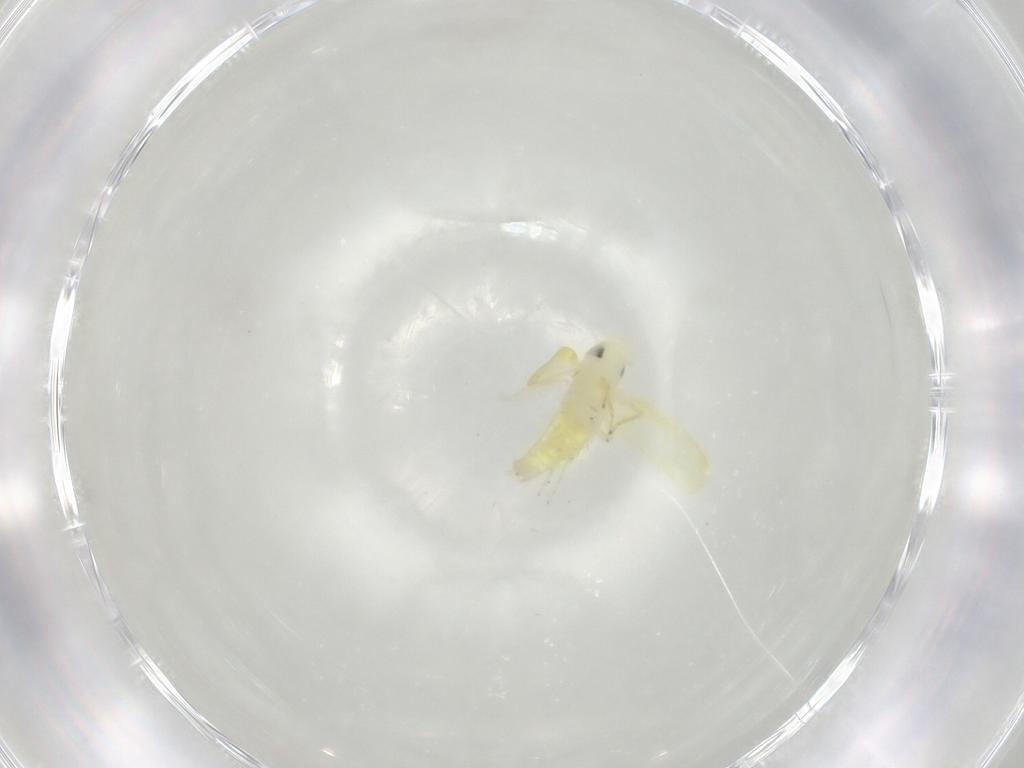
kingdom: Animalia
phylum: Arthropoda
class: Insecta
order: Hemiptera
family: Cicadellidae
